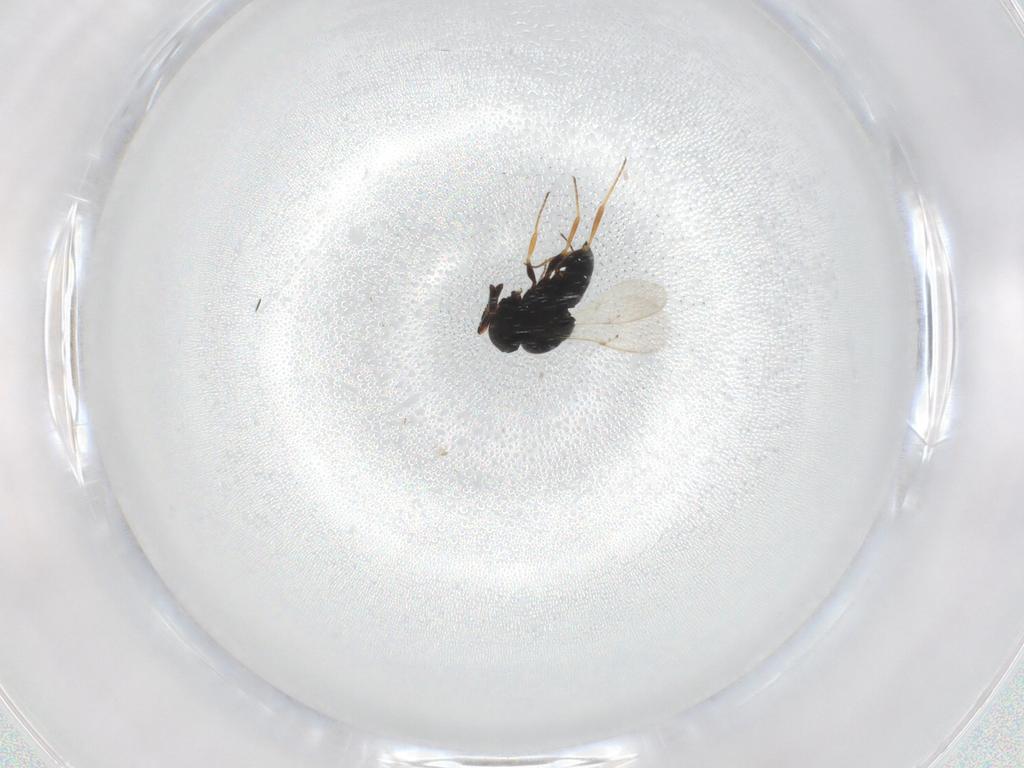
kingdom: Animalia
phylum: Arthropoda
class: Insecta
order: Hymenoptera
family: Scelionidae
